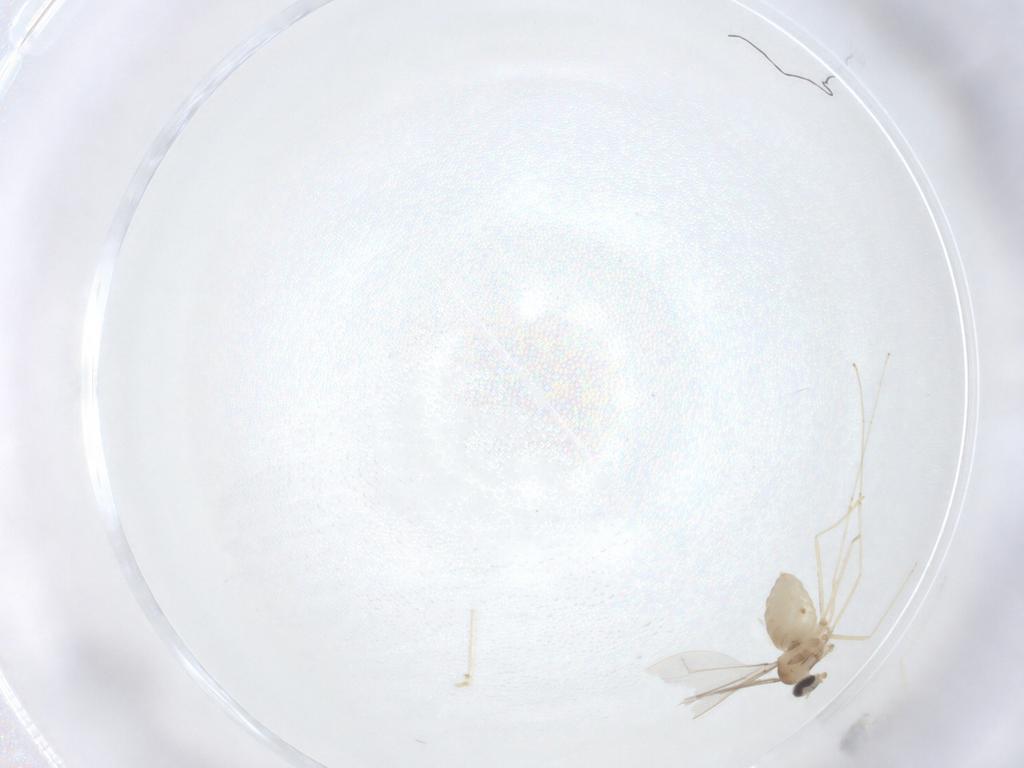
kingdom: Animalia
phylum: Arthropoda
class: Insecta
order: Diptera
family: Cecidomyiidae
